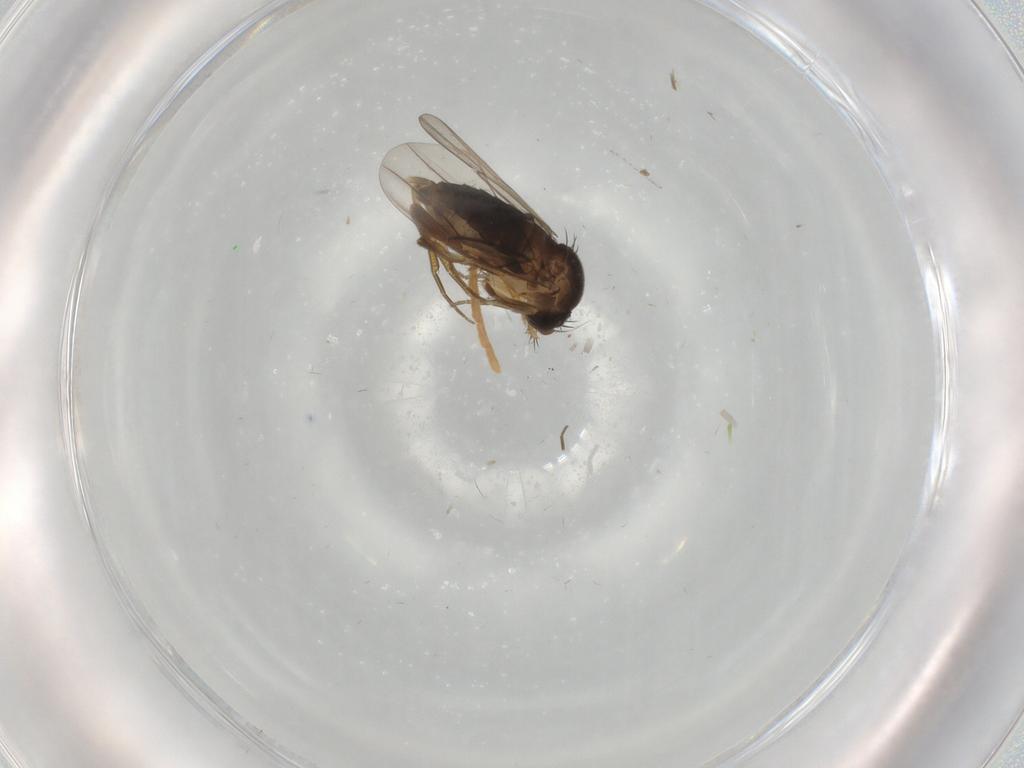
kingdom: Animalia
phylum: Arthropoda
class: Insecta
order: Diptera
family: Phoridae
